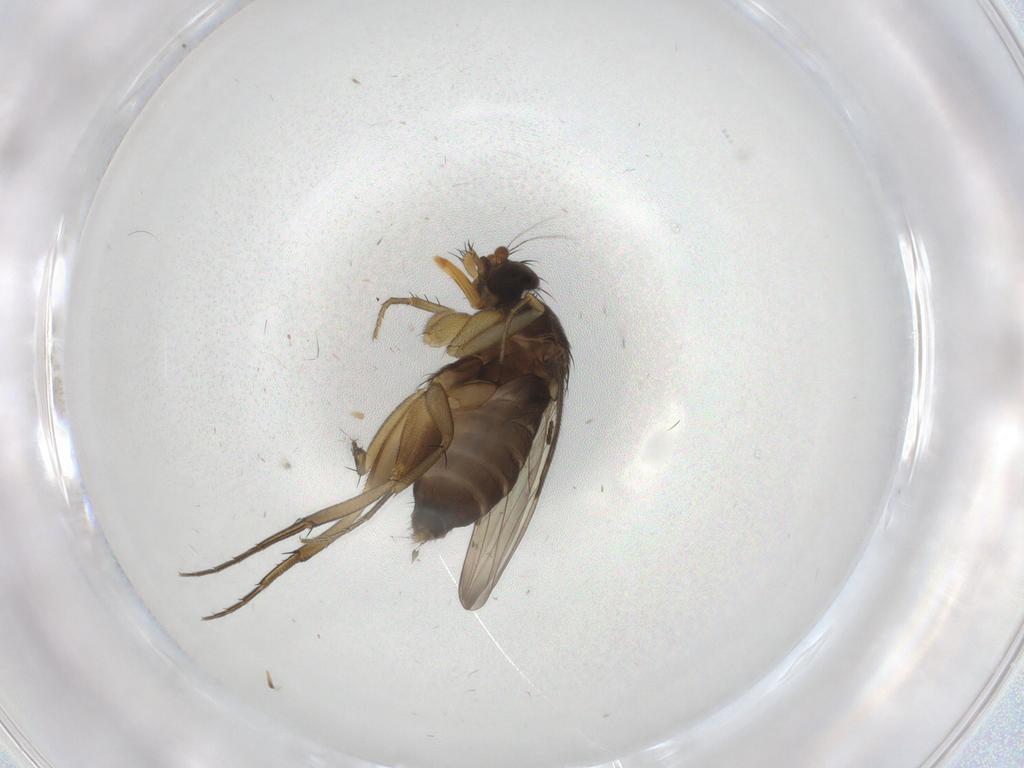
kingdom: Animalia
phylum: Arthropoda
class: Insecta
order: Diptera
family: Phoridae
